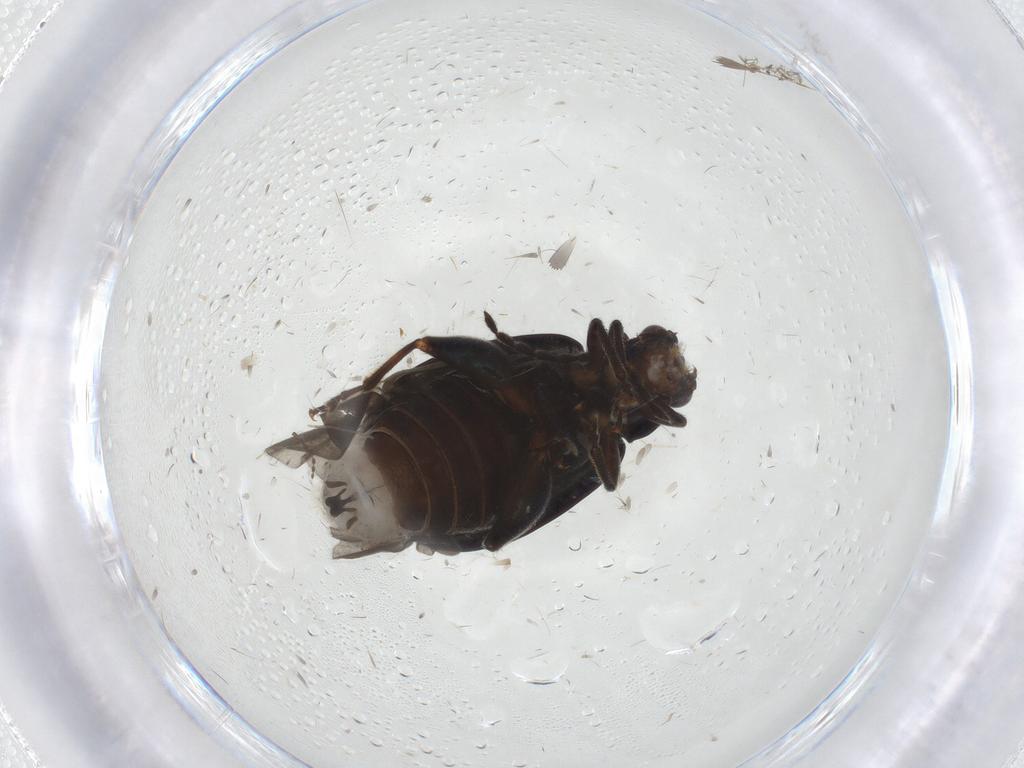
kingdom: Animalia
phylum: Arthropoda
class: Insecta
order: Coleoptera
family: Chrysomelidae
